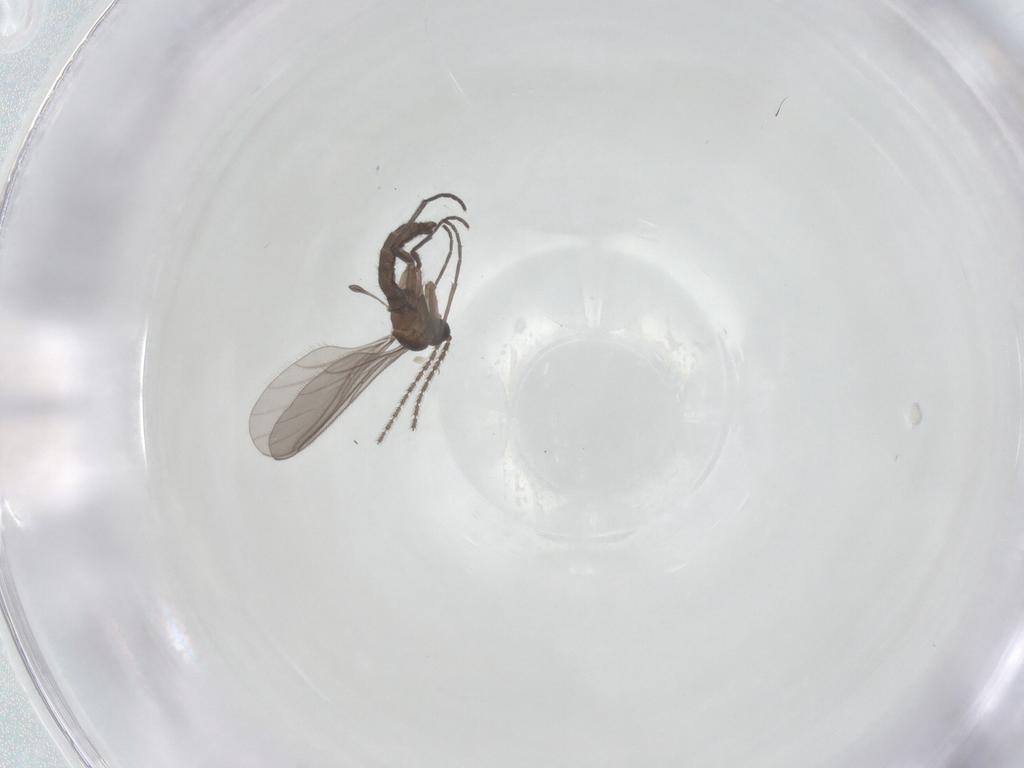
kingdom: Animalia
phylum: Arthropoda
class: Insecta
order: Diptera
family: Sciaridae
